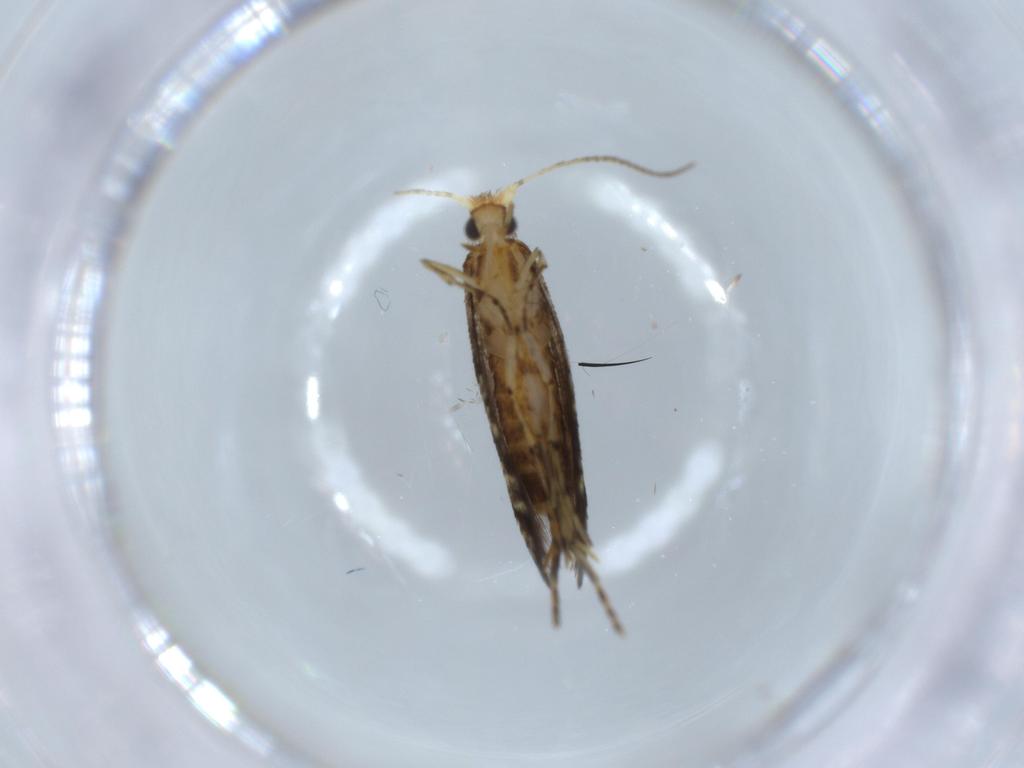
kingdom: Animalia
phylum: Arthropoda
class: Insecta
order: Lepidoptera
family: Argyresthiidae
